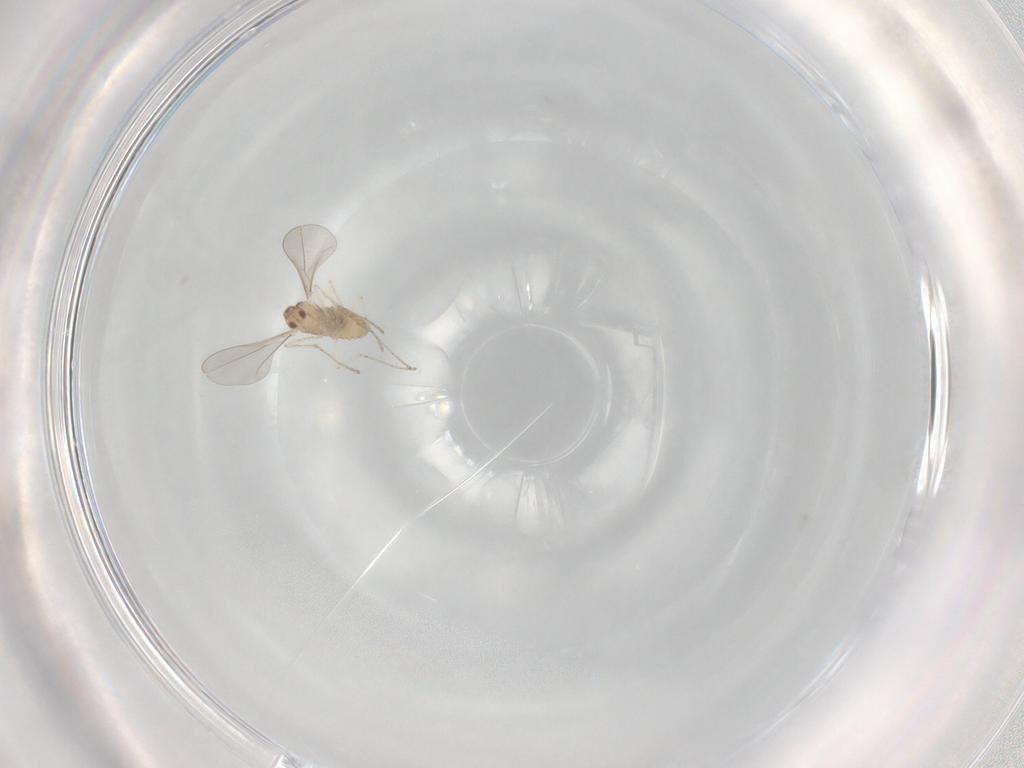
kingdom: Animalia
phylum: Arthropoda
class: Insecta
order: Diptera
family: Cecidomyiidae
